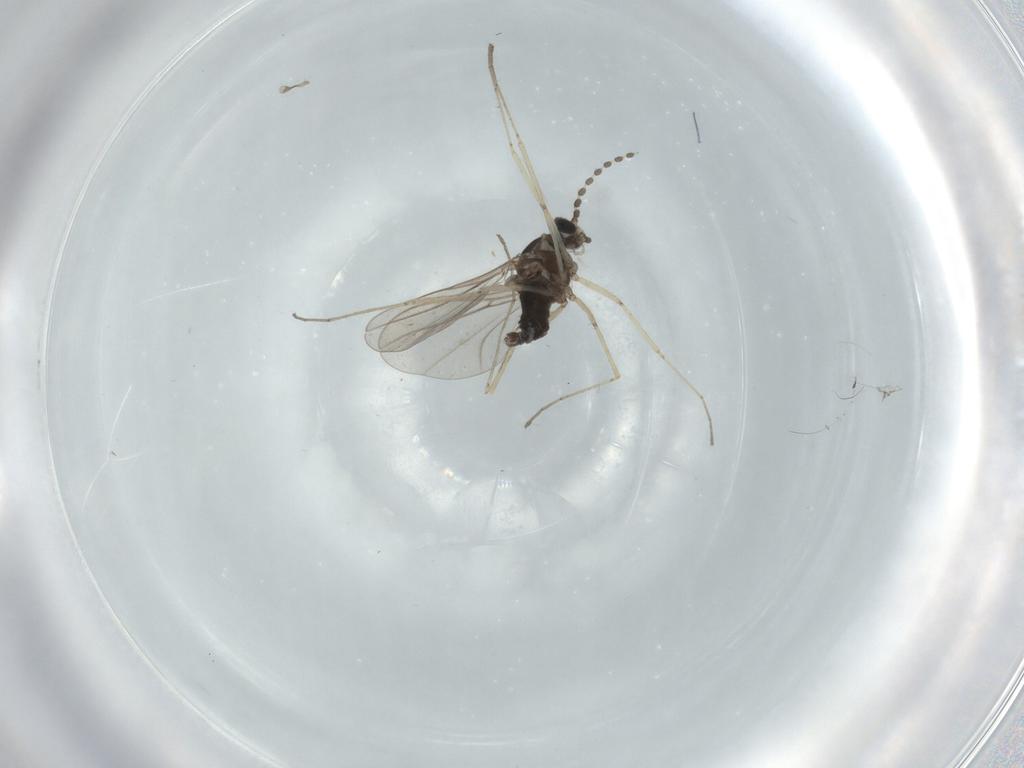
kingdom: Animalia
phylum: Arthropoda
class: Insecta
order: Diptera
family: Cecidomyiidae
